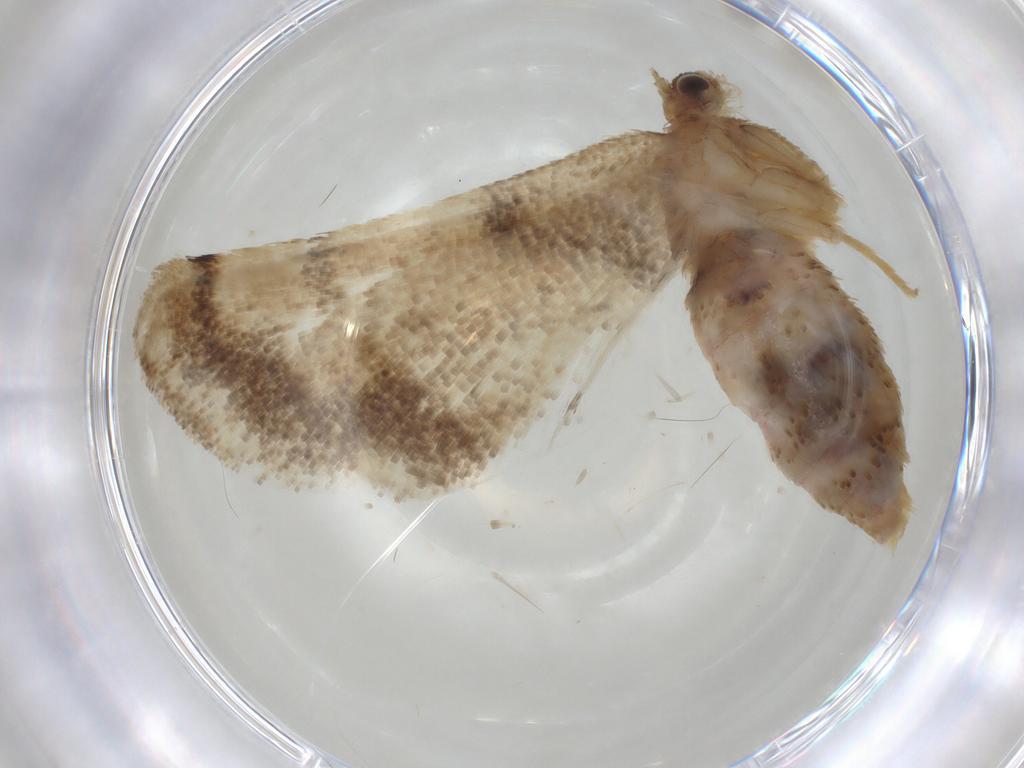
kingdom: Animalia
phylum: Arthropoda
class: Insecta
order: Lepidoptera
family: Geometridae
